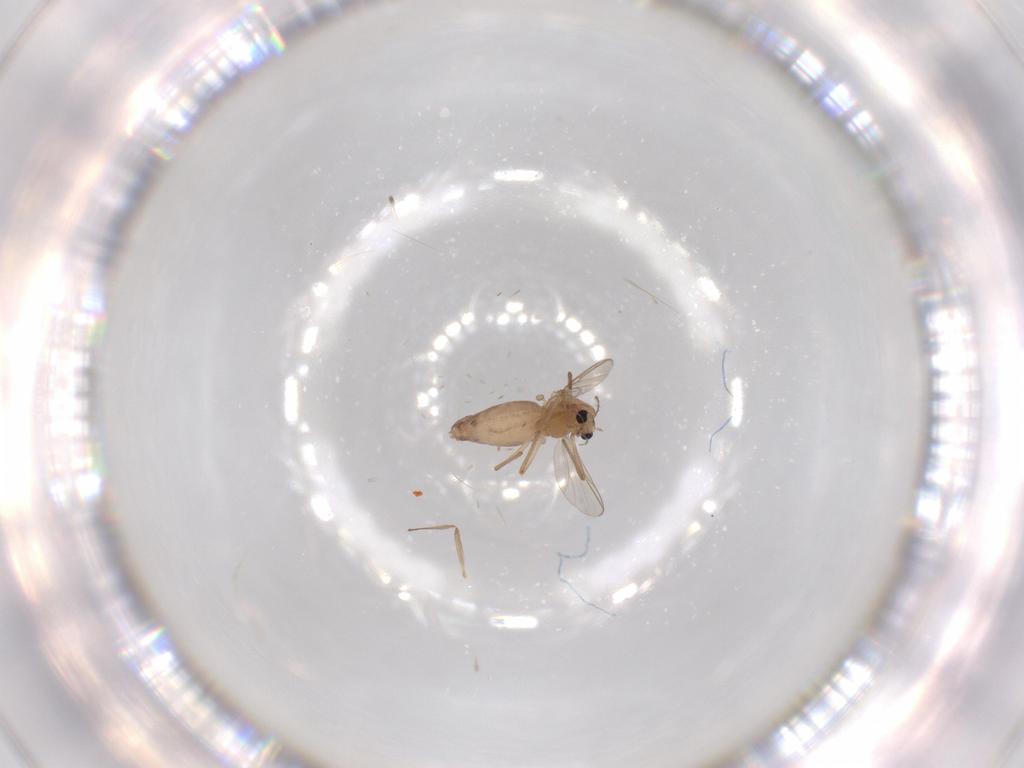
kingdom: Animalia
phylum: Arthropoda
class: Insecta
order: Diptera
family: Chironomidae
